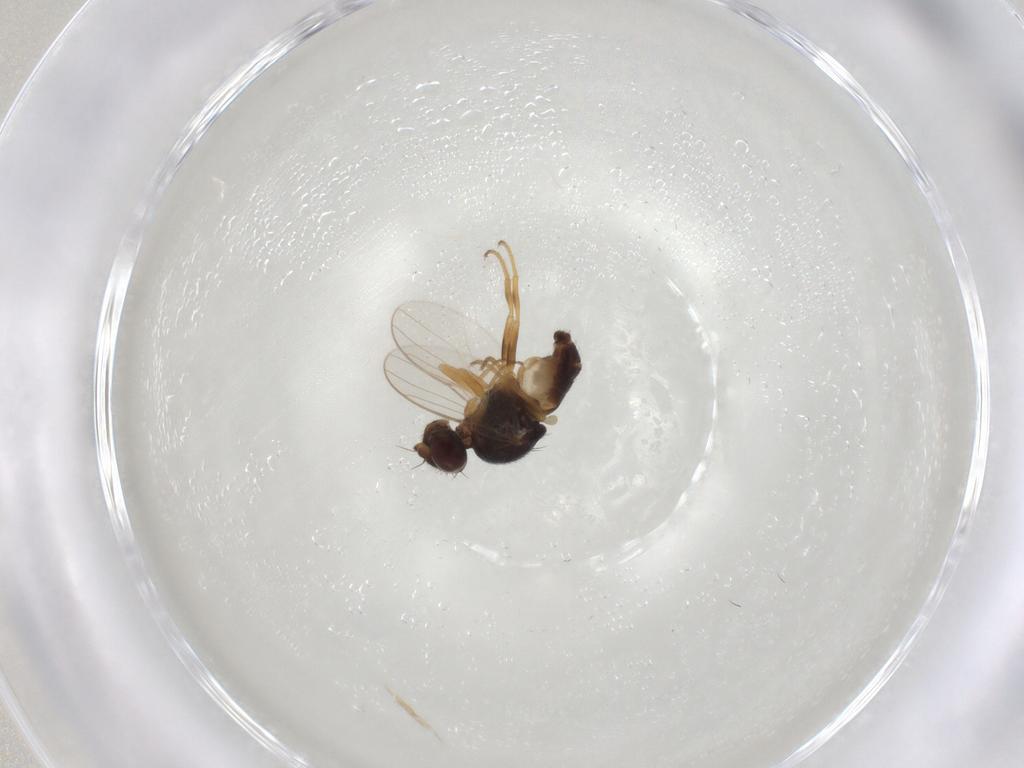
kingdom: Animalia
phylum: Arthropoda
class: Insecta
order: Diptera
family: Chloropidae
